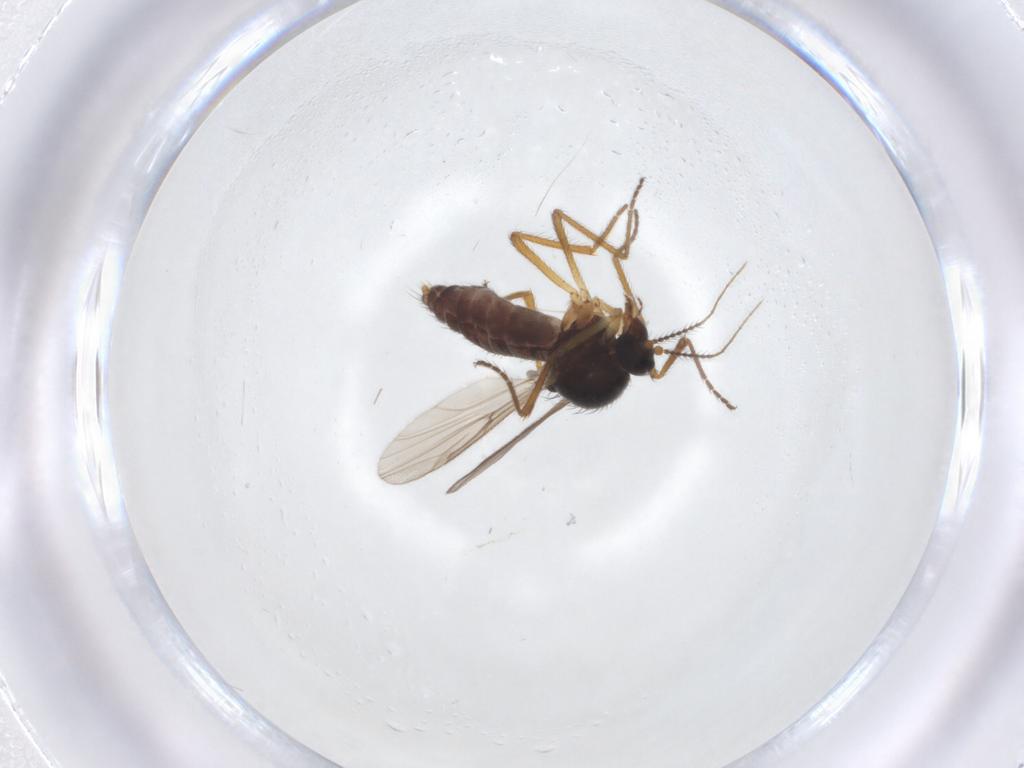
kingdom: Animalia
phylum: Arthropoda
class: Insecta
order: Diptera
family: Ceratopogonidae
